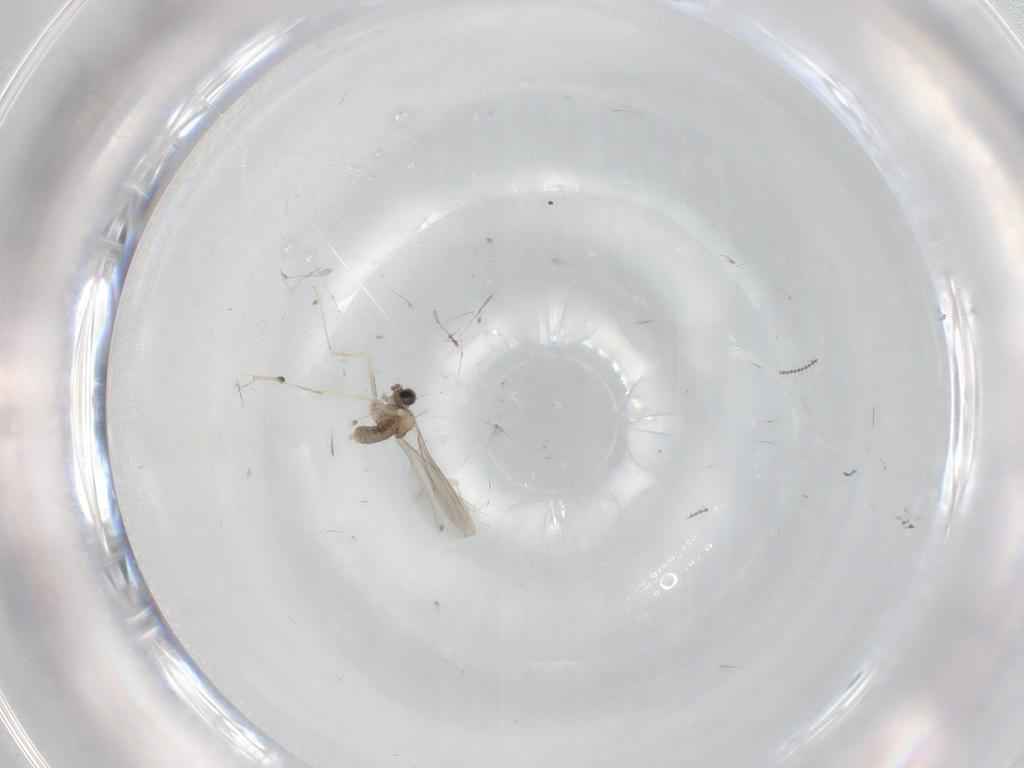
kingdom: Animalia
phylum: Arthropoda
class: Insecta
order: Diptera
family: Cecidomyiidae
